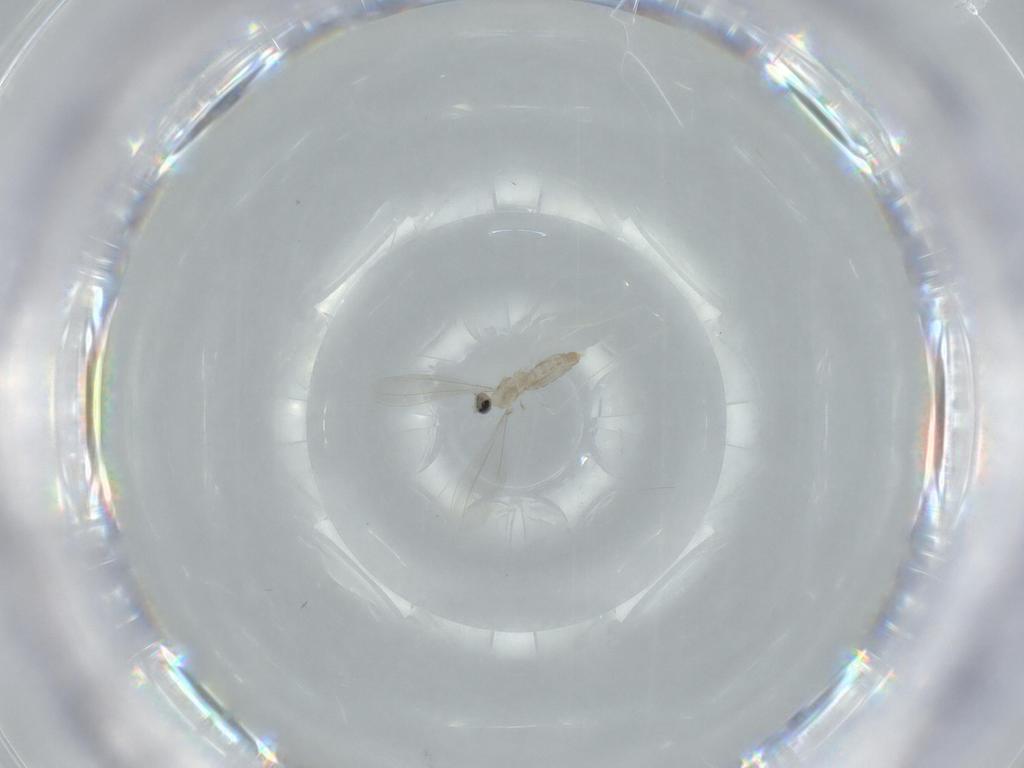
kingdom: Animalia
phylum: Arthropoda
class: Insecta
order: Diptera
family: Cecidomyiidae
